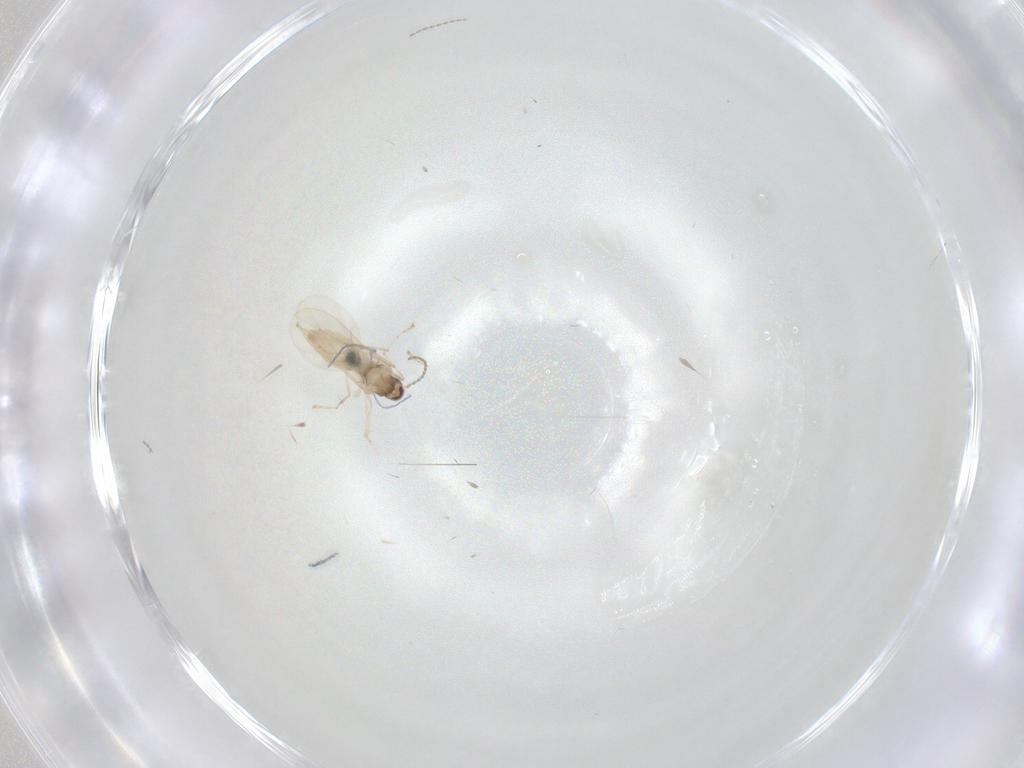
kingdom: Animalia
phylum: Arthropoda
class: Insecta
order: Diptera
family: Cecidomyiidae
